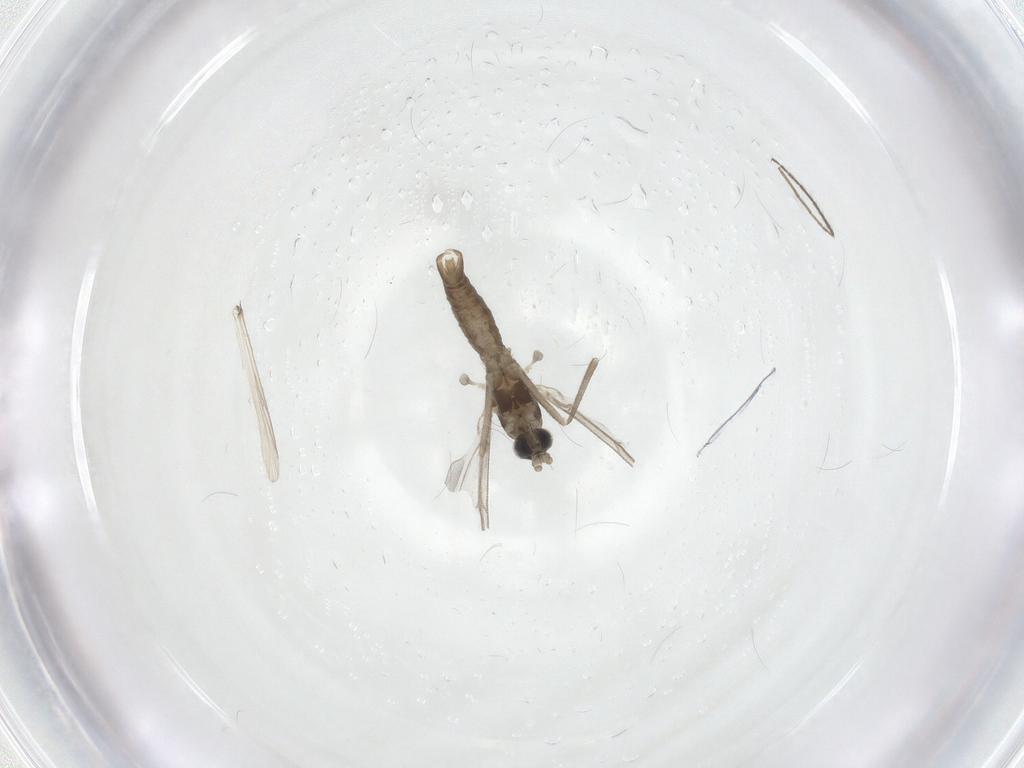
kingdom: Animalia
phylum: Arthropoda
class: Insecta
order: Diptera
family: Cecidomyiidae
